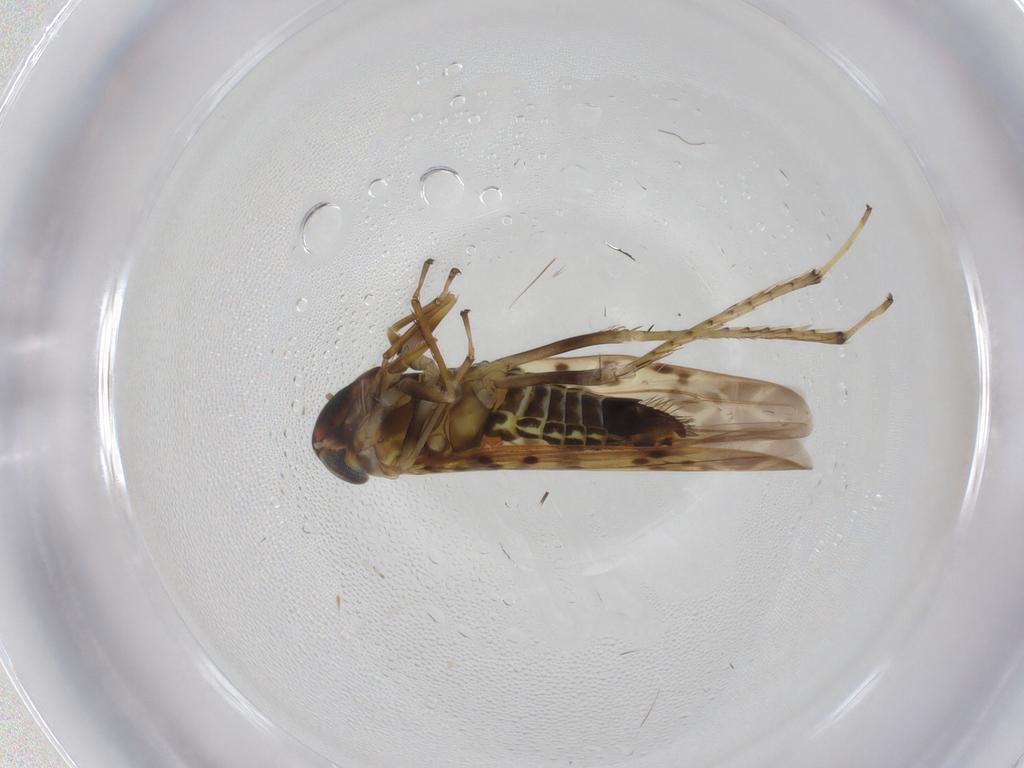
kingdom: Animalia
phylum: Arthropoda
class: Insecta
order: Hemiptera
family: Cicadellidae
